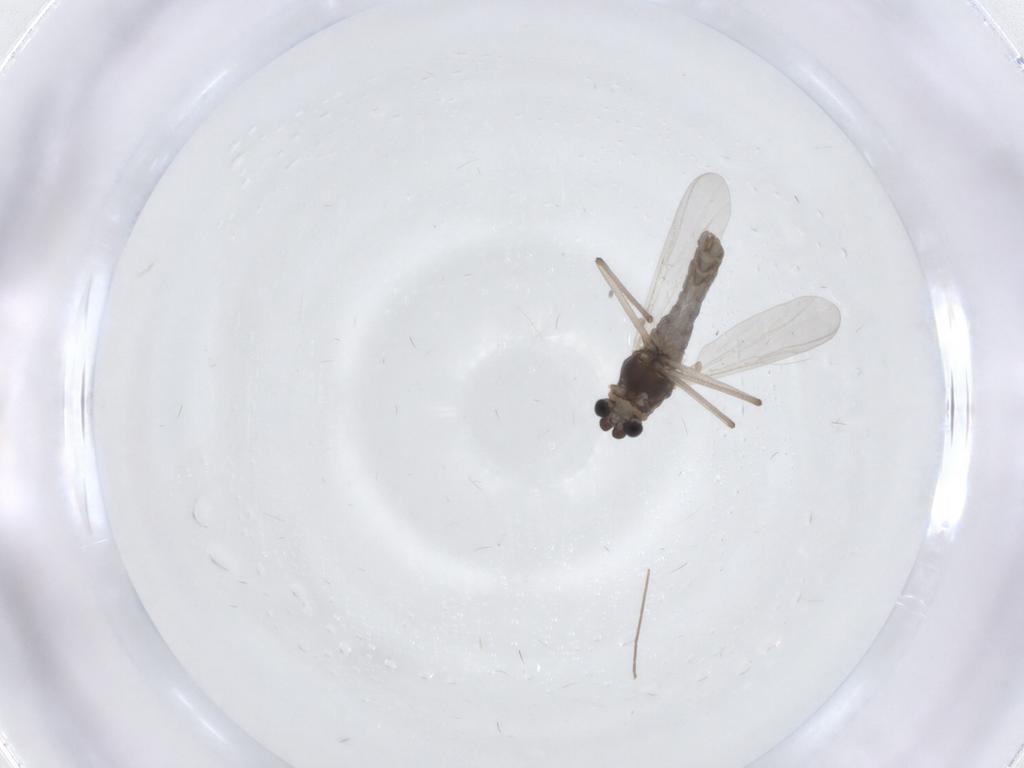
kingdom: Animalia
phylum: Arthropoda
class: Insecta
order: Diptera
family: Chironomidae
